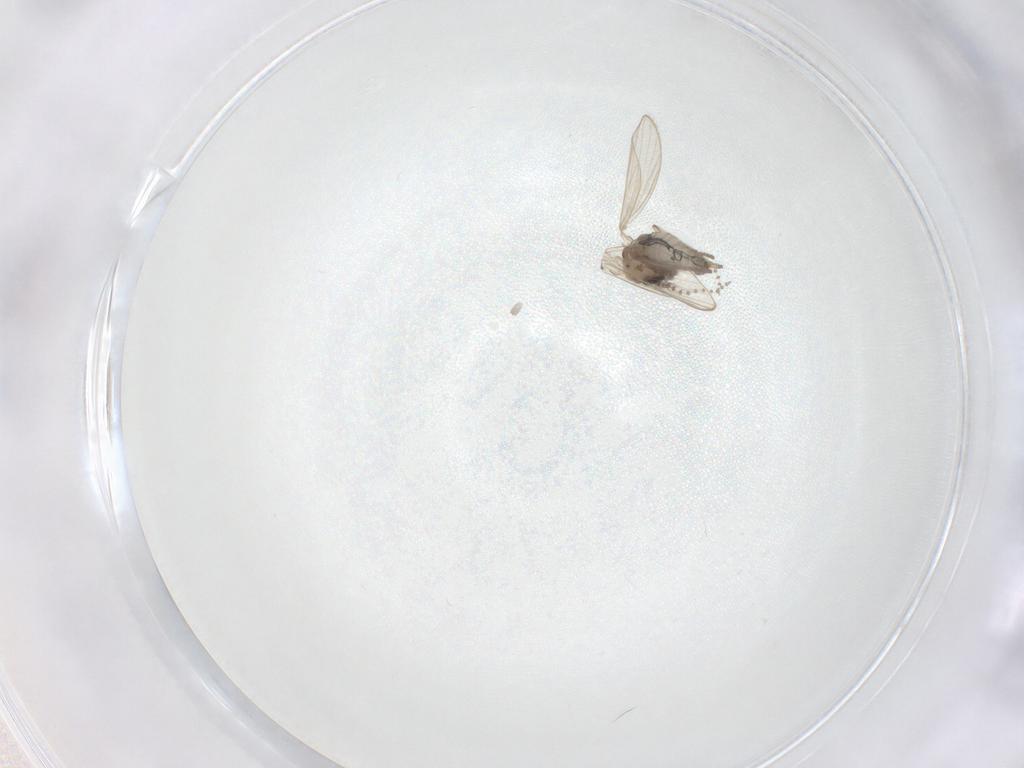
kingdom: Animalia
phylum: Arthropoda
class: Insecta
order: Diptera
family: Psychodidae
